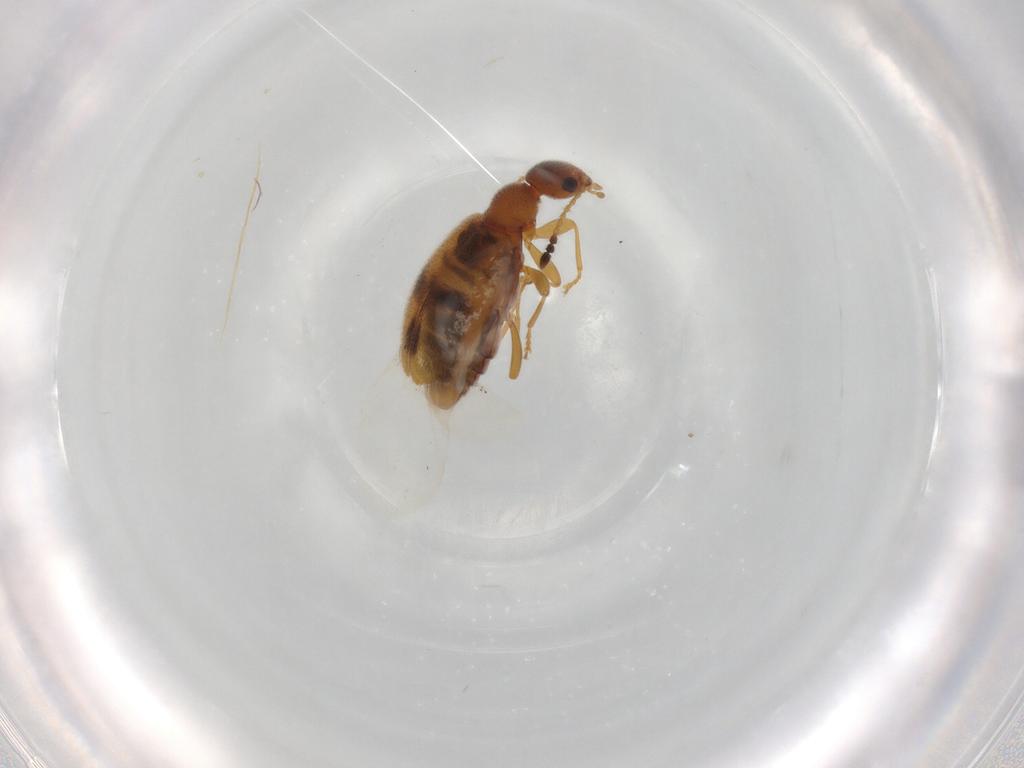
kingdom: Animalia
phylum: Arthropoda
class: Insecta
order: Coleoptera
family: Anthicidae
